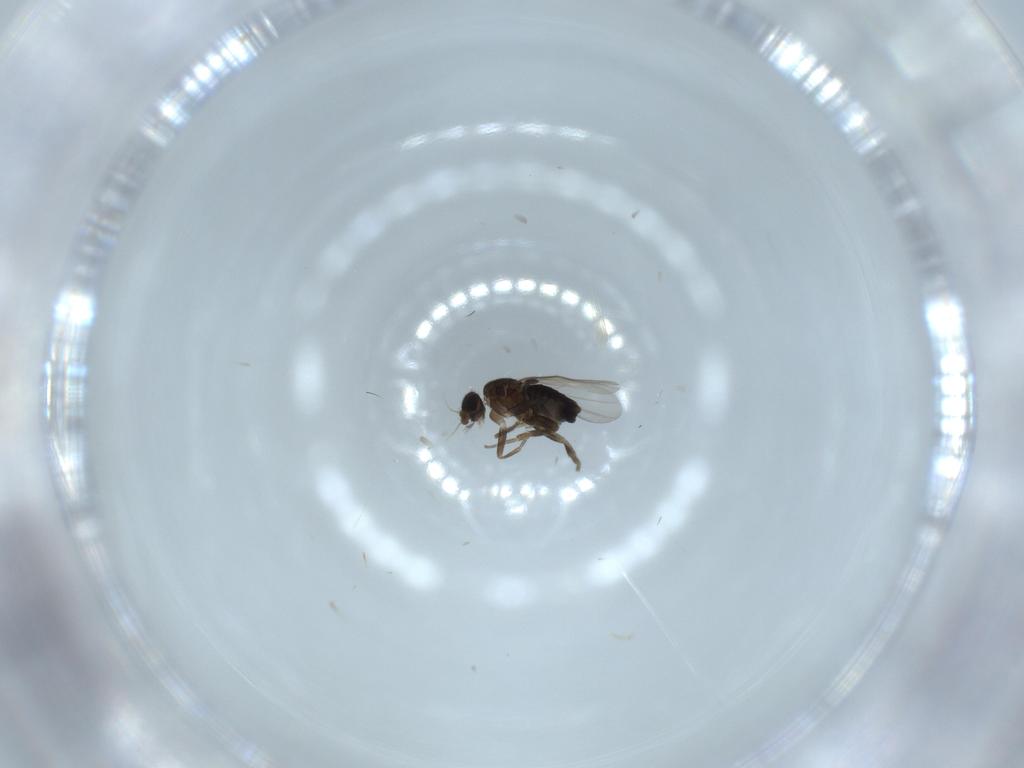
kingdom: Animalia
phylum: Arthropoda
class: Insecta
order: Diptera
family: Phoridae
